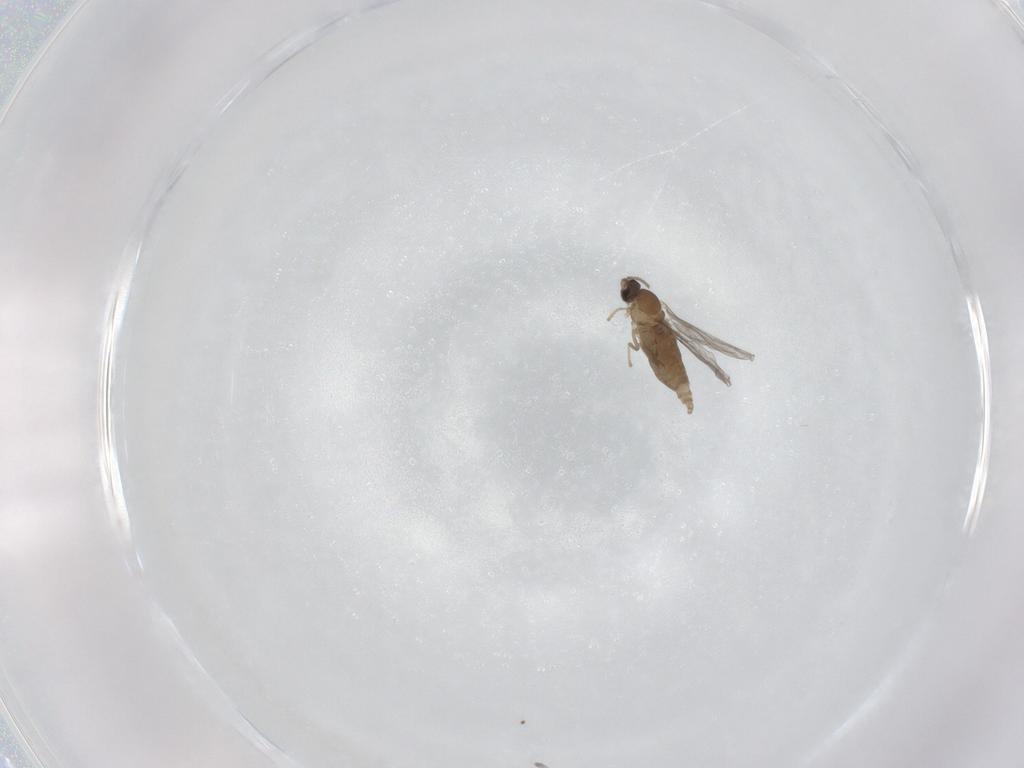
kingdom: Animalia
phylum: Arthropoda
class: Insecta
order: Diptera
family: Cecidomyiidae
